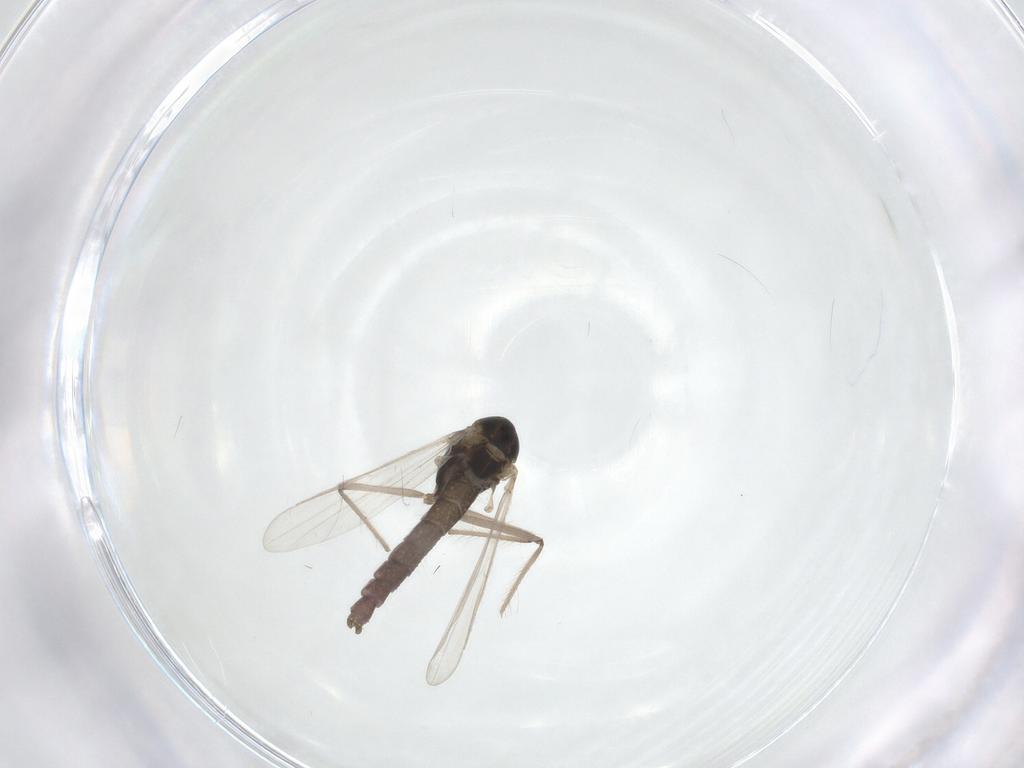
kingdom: Animalia
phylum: Arthropoda
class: Insecta
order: Diptera
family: Chironomidae
